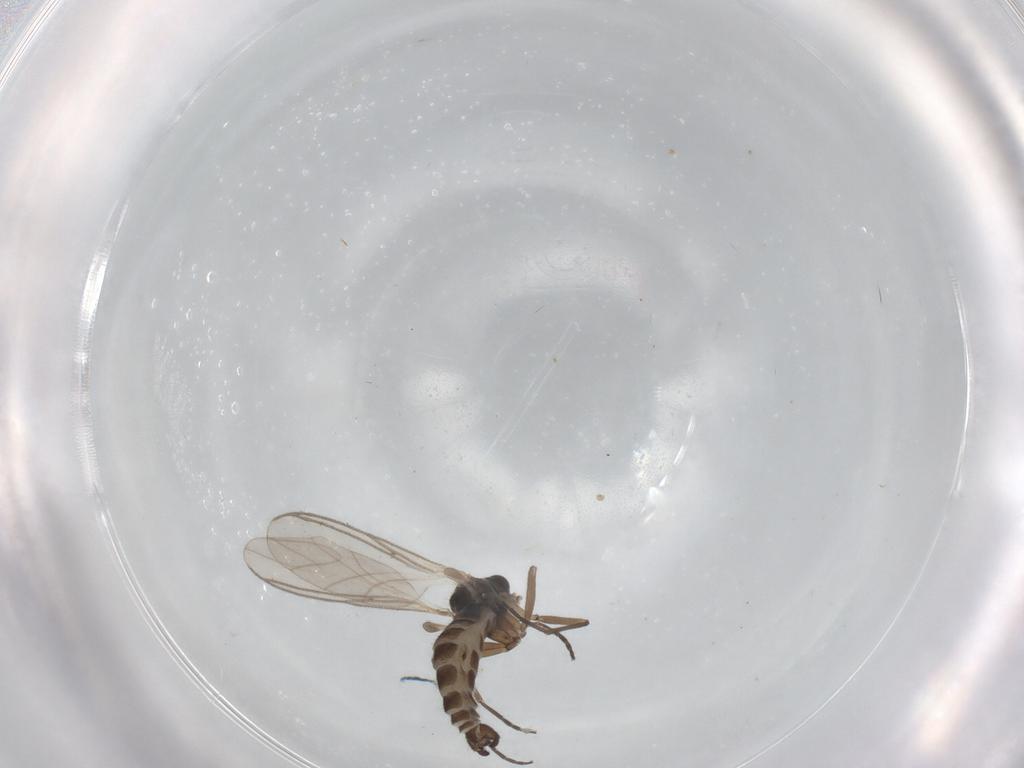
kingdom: Animalia
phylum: Arthropoda
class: Insecta
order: Diptera
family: Sciaridae
